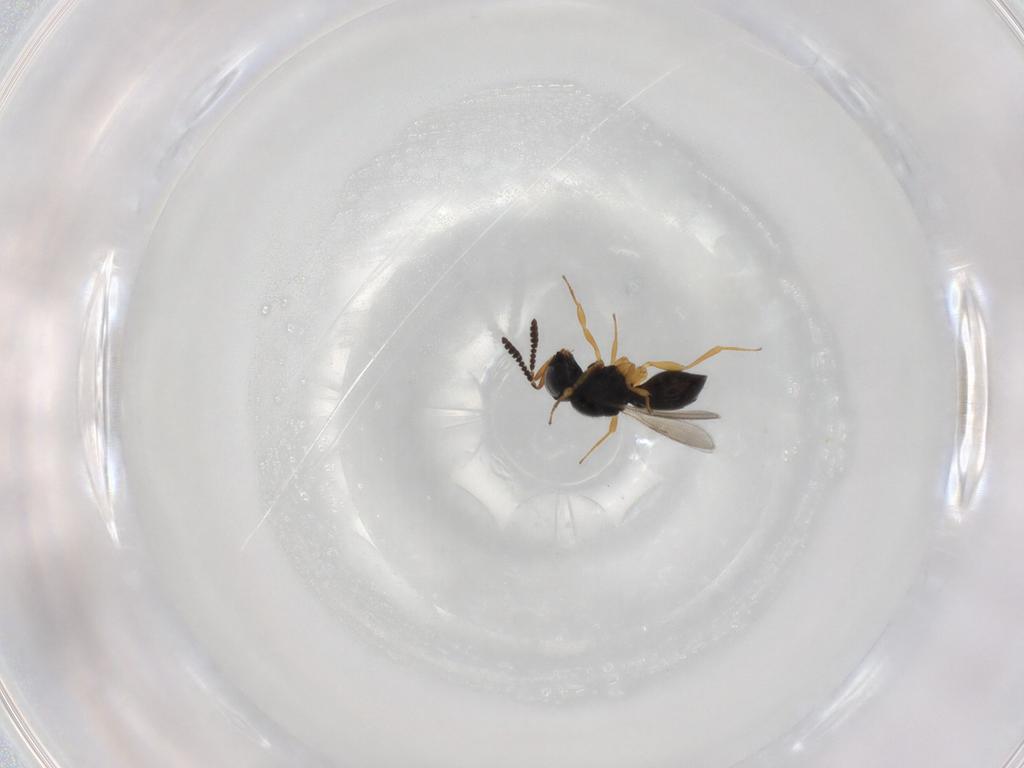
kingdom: Animalia
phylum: Arthropoda
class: Insecta
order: Hymenoptera
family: Scelionidae
